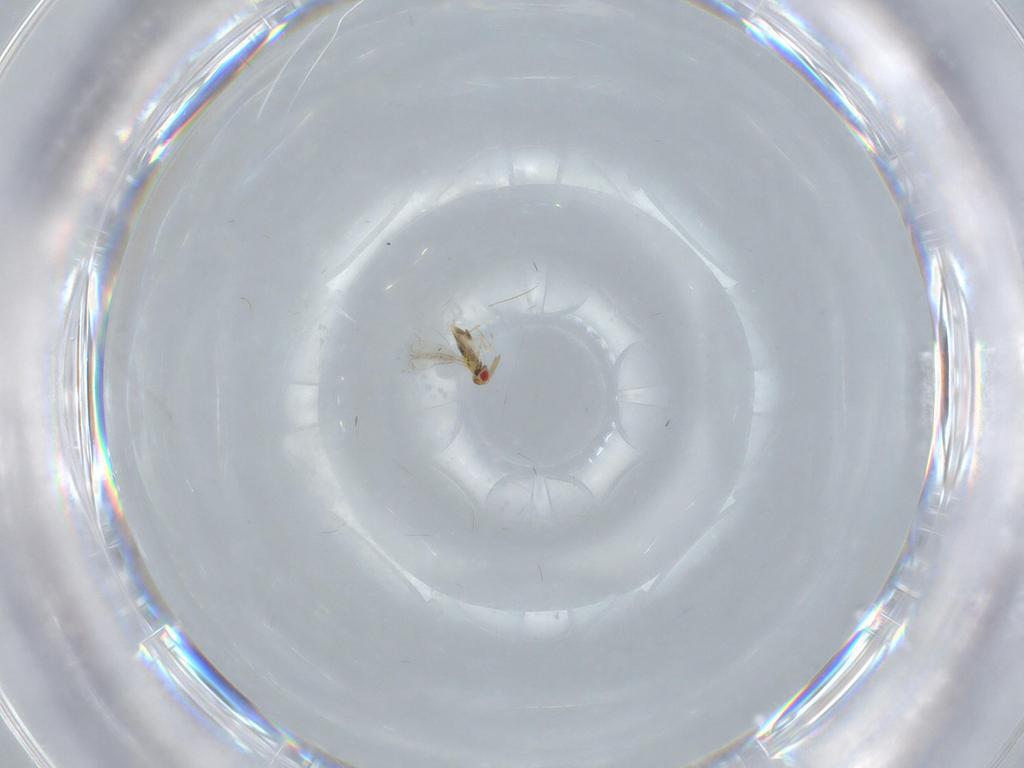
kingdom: Animalia
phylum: Arthropoda
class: Insecta
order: Hymenoptera
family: Aphelinidae
